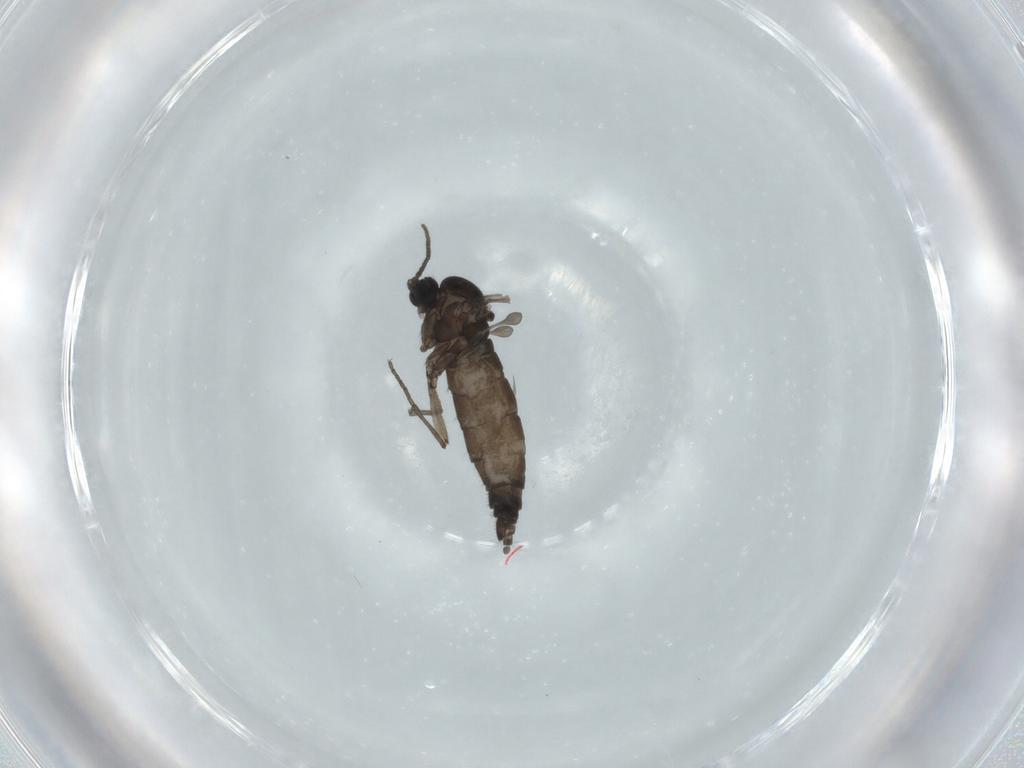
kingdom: Animalia
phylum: Arthropoda
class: Insecta
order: Diptera
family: Sciaridae
